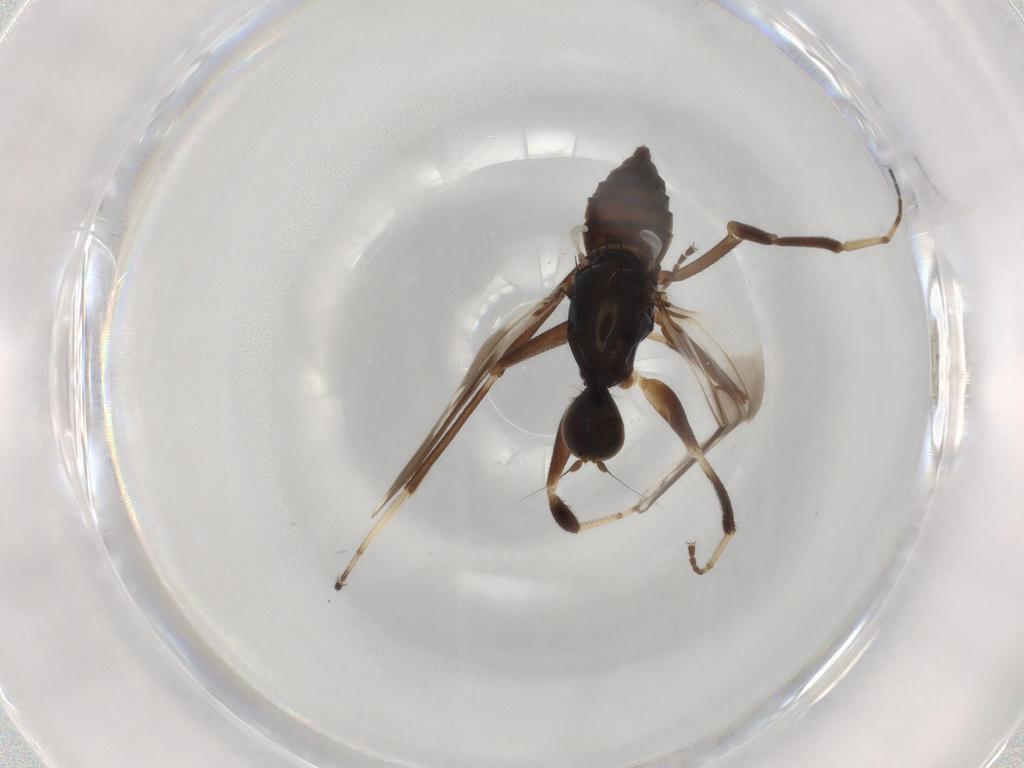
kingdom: Animalia
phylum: Arthropoda
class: Insecta
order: Diptera
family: Hybotidae
